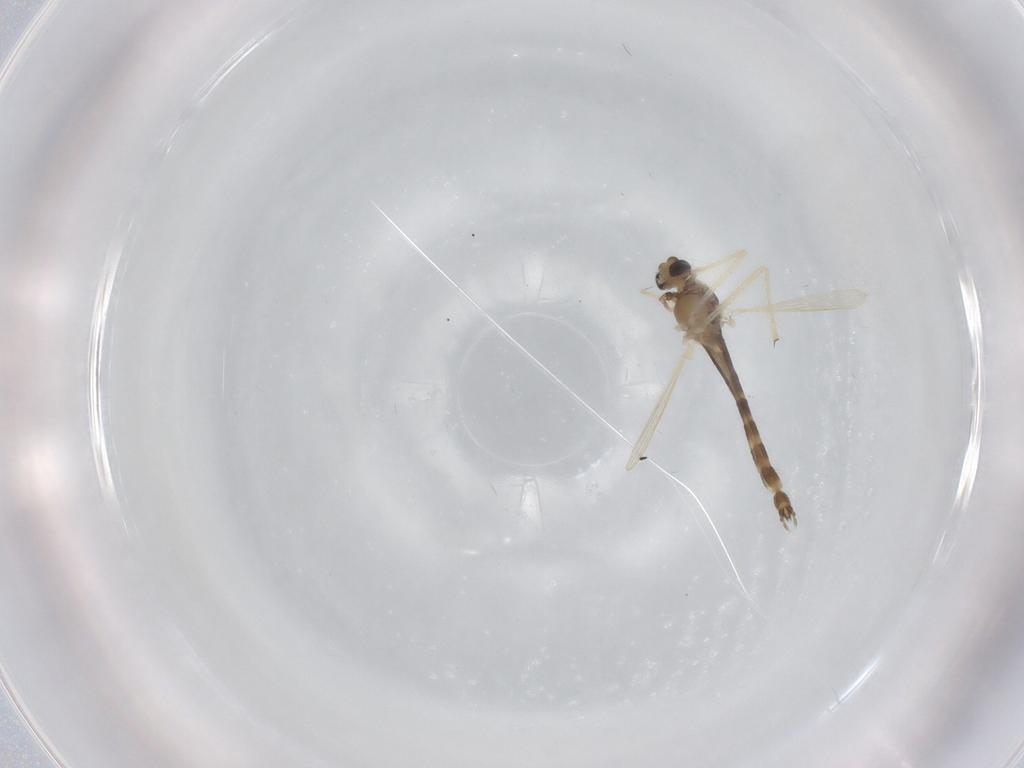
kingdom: Animalia
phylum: Arthropoda
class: Insecta
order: Diptera
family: Chironomidae
